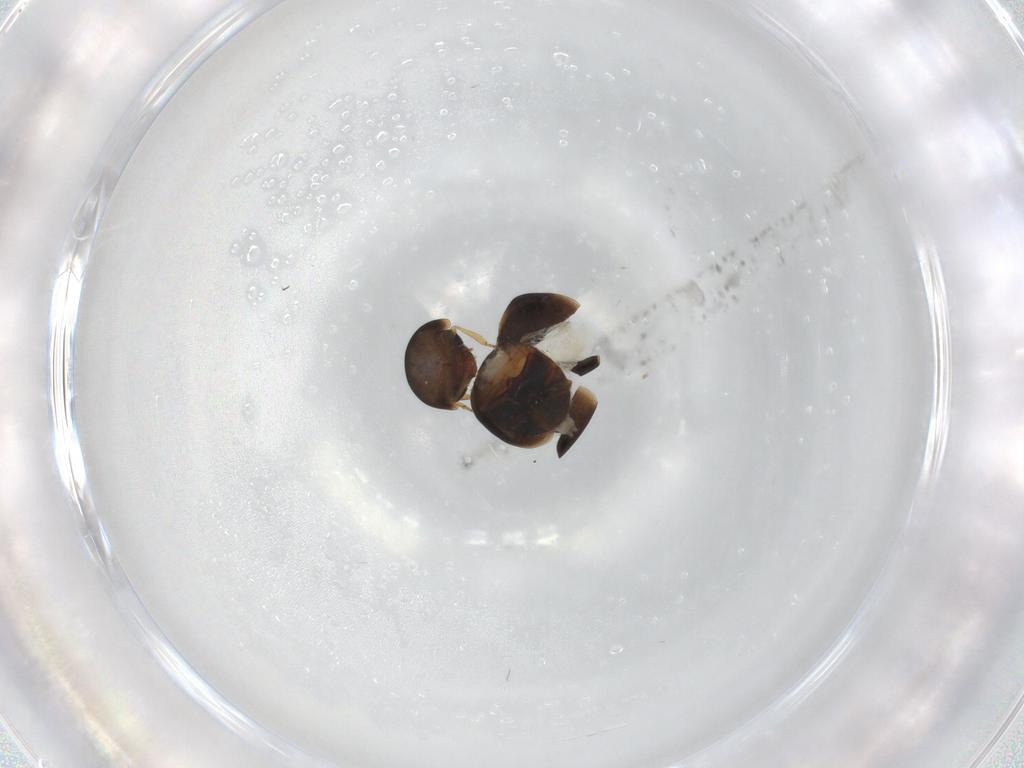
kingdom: Animalia
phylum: Arthropoda
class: Insecta
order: Coleoptera
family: Cybocephalidae
